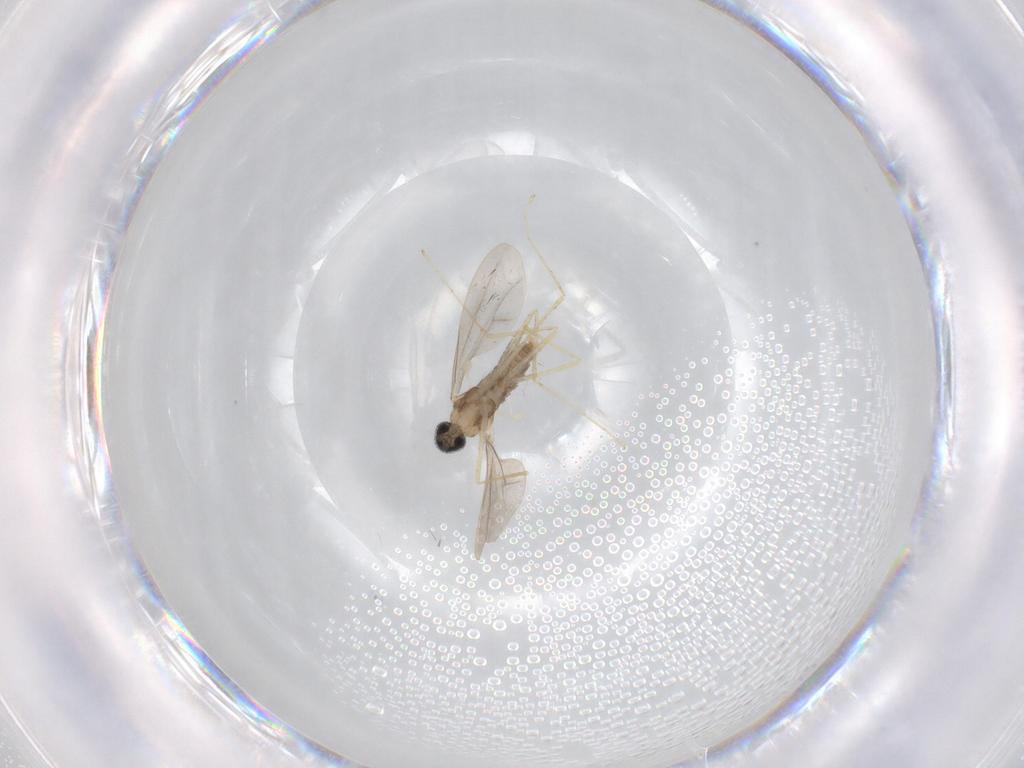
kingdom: Animalia
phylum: Arthropoda
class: Insecta
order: Diptera
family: Cecidomyiidae
